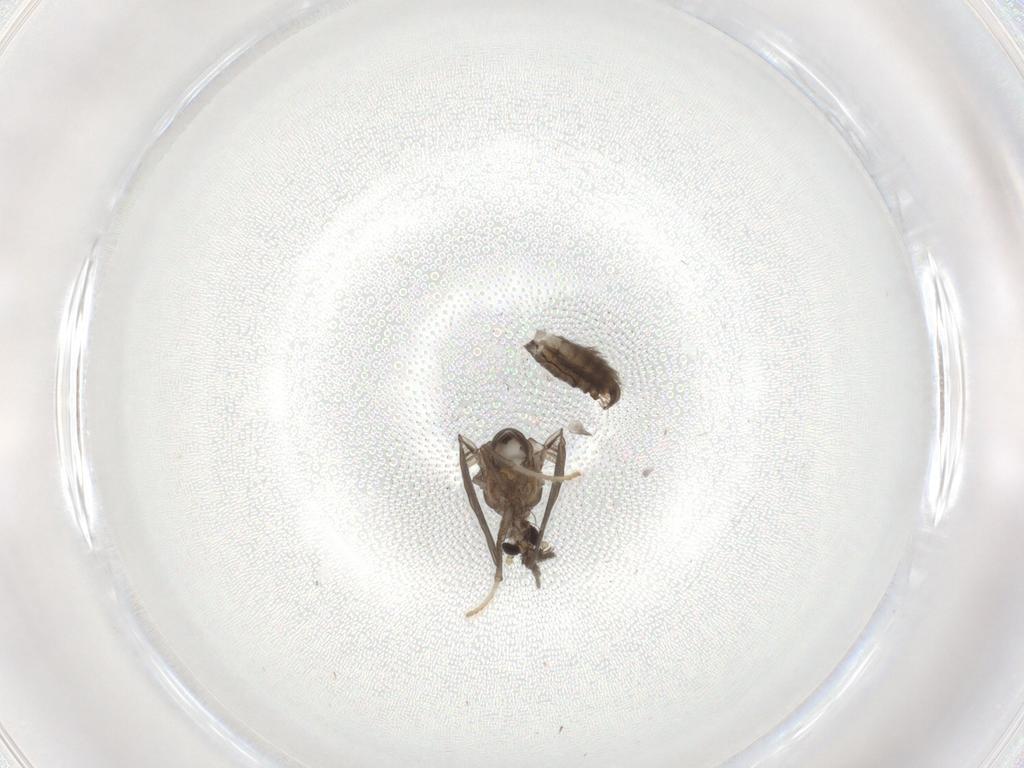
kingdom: Animalia
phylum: Arthropoda
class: Insecta
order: Diptera
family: Psychodidae
